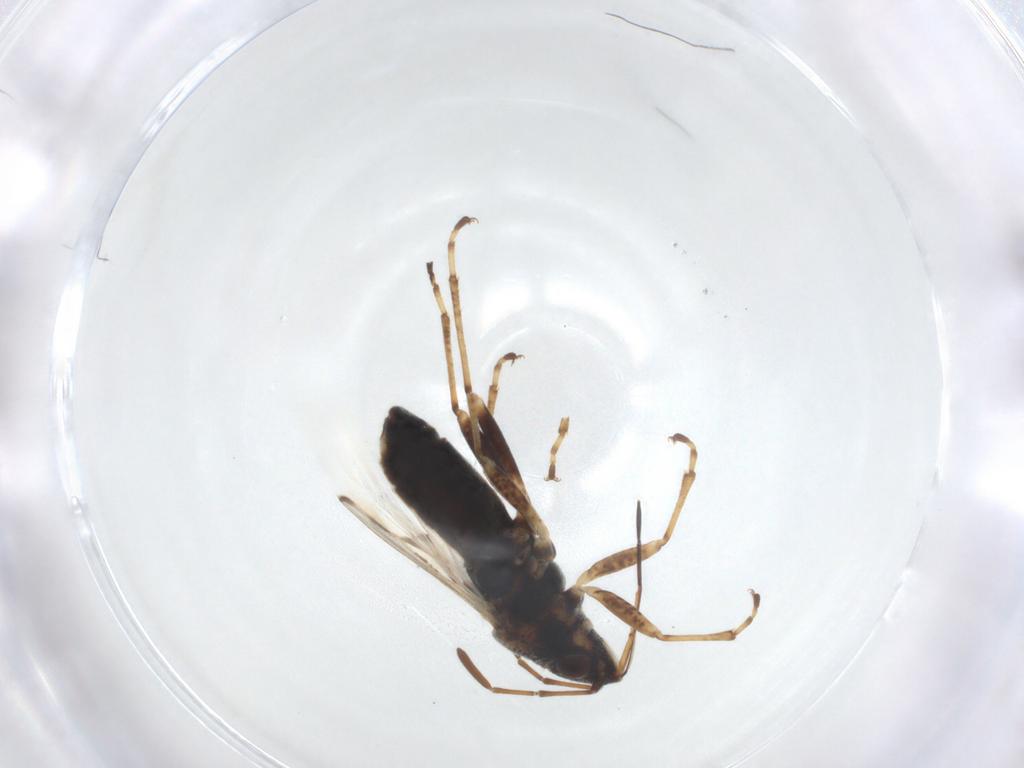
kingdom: Animalia
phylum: Arthropoda
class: Insecta
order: Hemiptera
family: Lygaeidae
